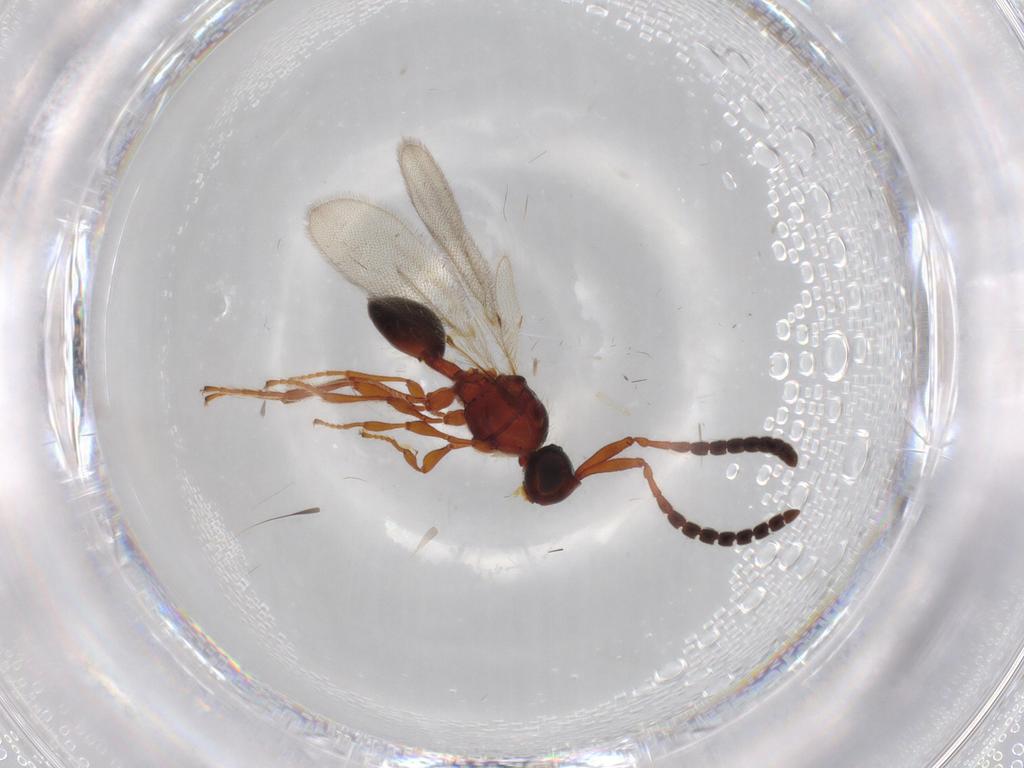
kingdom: Animalia
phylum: Arthropoda
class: Insecta
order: Hymenoptera
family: Diapriidae
